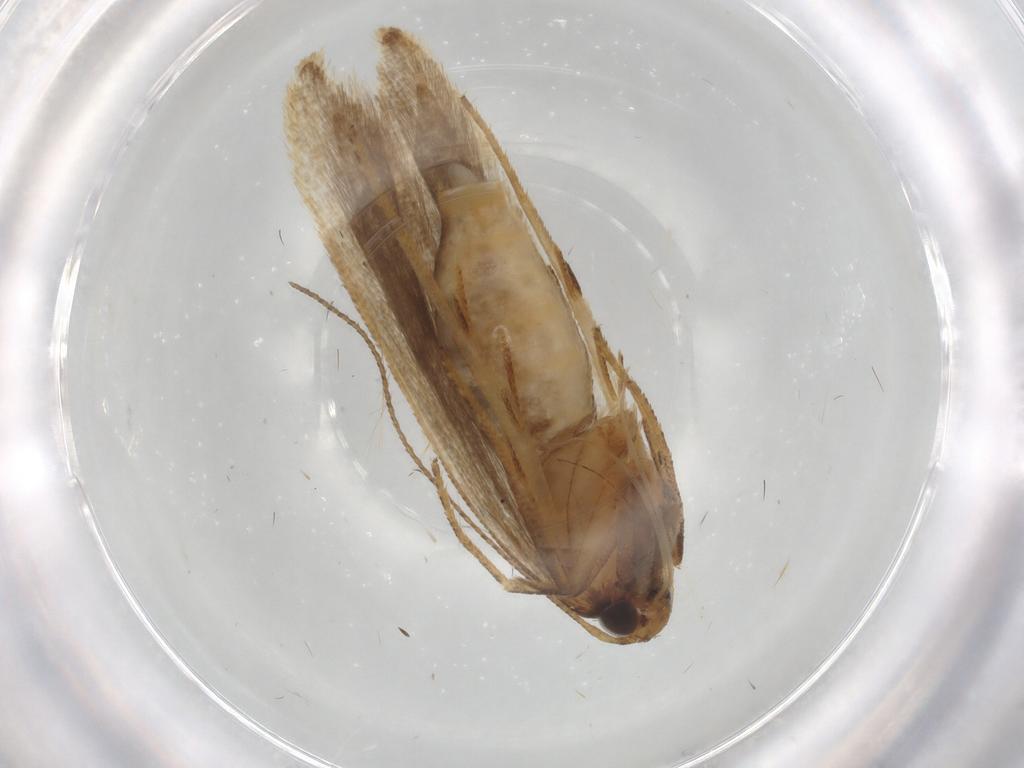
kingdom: Animalia
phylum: Arthropoda
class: Insecta
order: Lepidoptera
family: Gelechiidae
